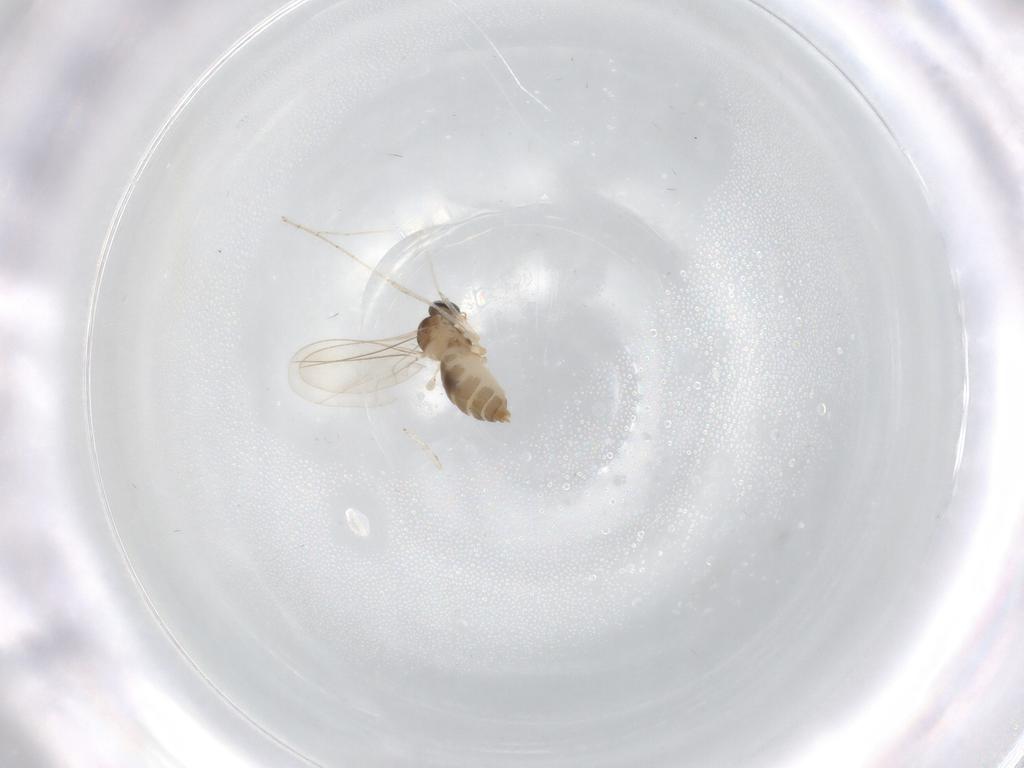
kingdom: Animalia
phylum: Arthropoda
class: Insecta
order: Diptera
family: Cecidomyiidae
